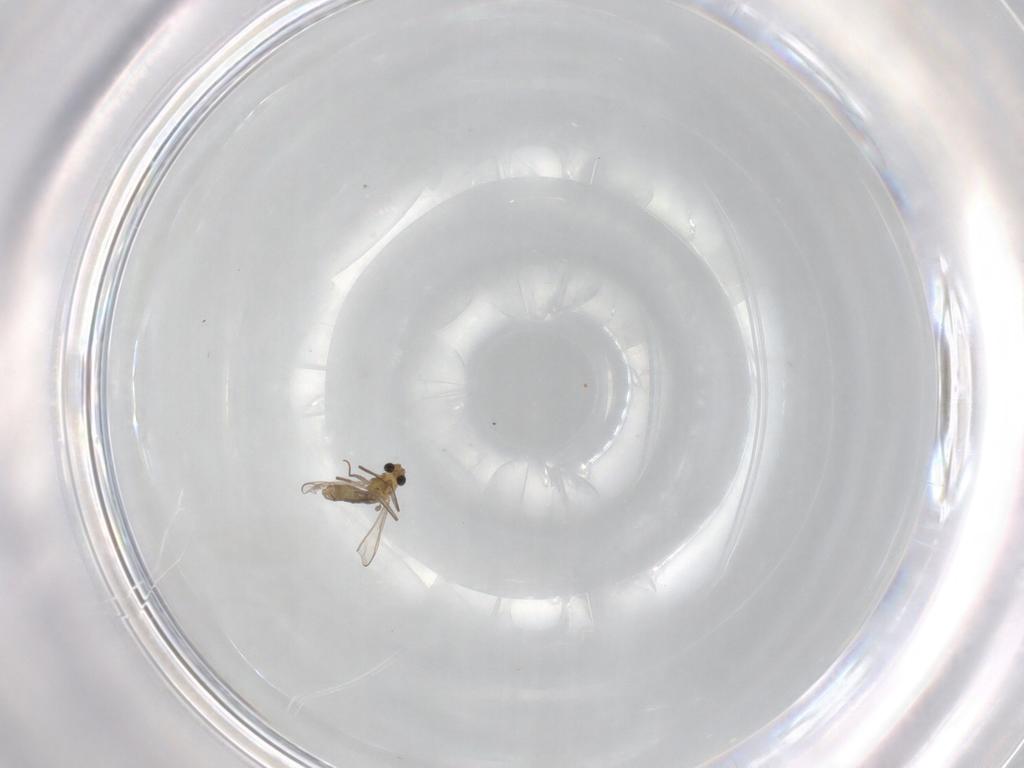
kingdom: Animalia
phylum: Arthropoda
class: Insecta
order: Diptera
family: Chironomidae
